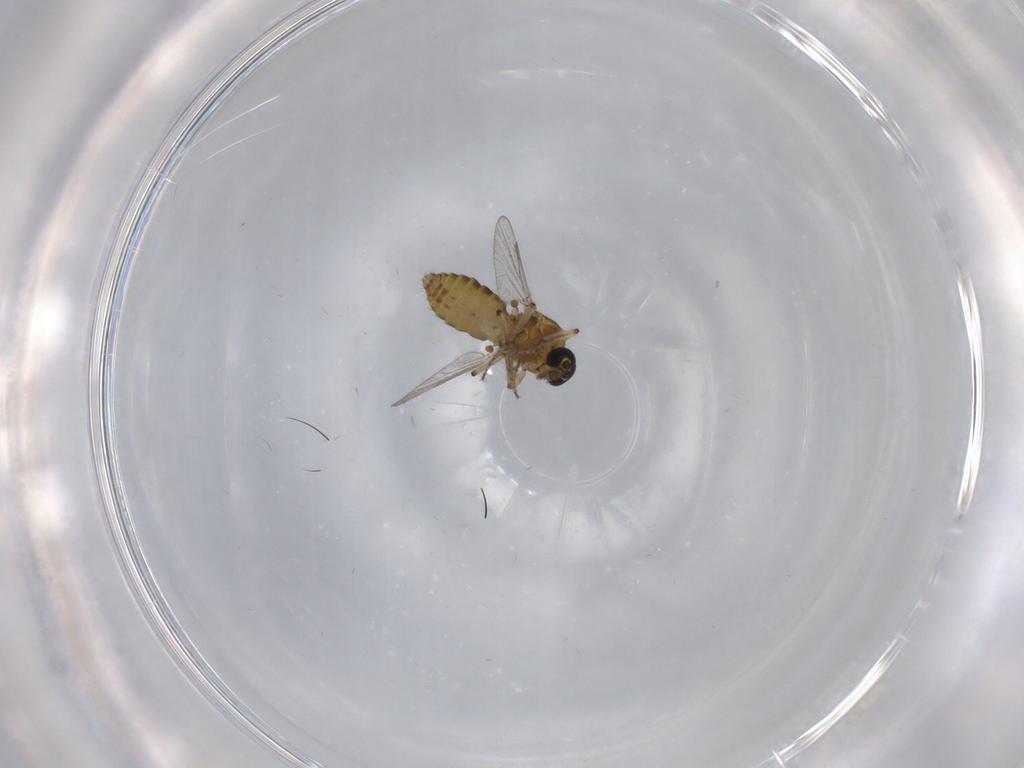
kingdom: Animalia
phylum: Arthropoda
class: Insecta
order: Diptera
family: Ceratopogonidae
